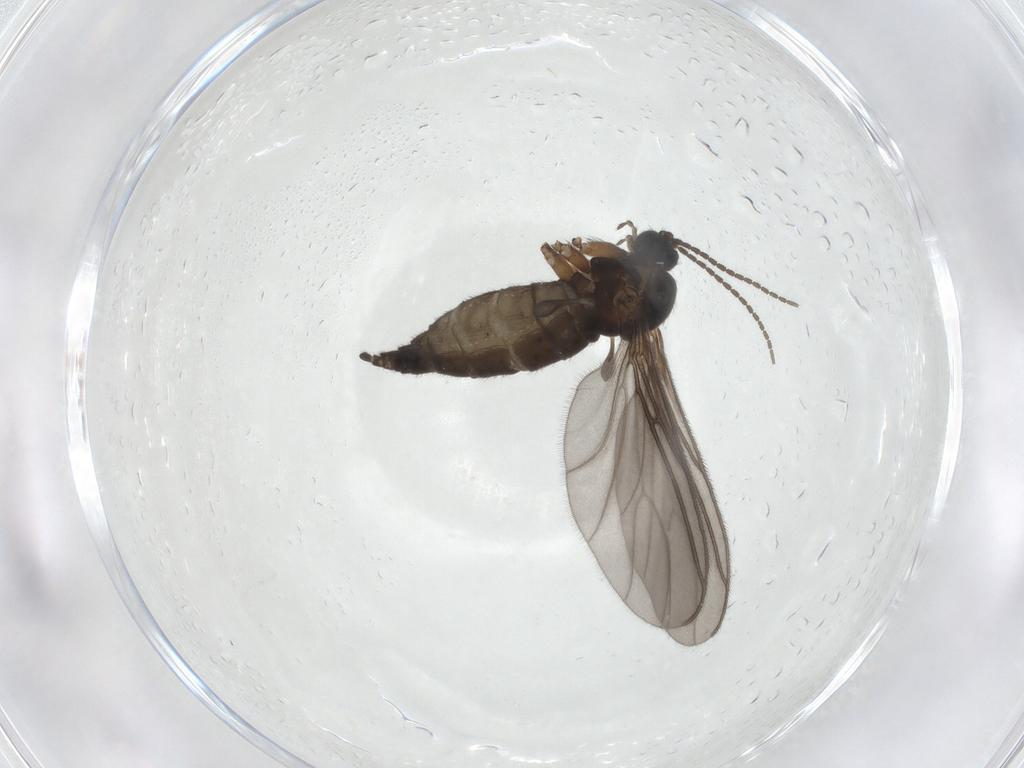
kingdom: Animalia
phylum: Arthropoda
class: Insecta
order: Diptera
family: Sciaridae
